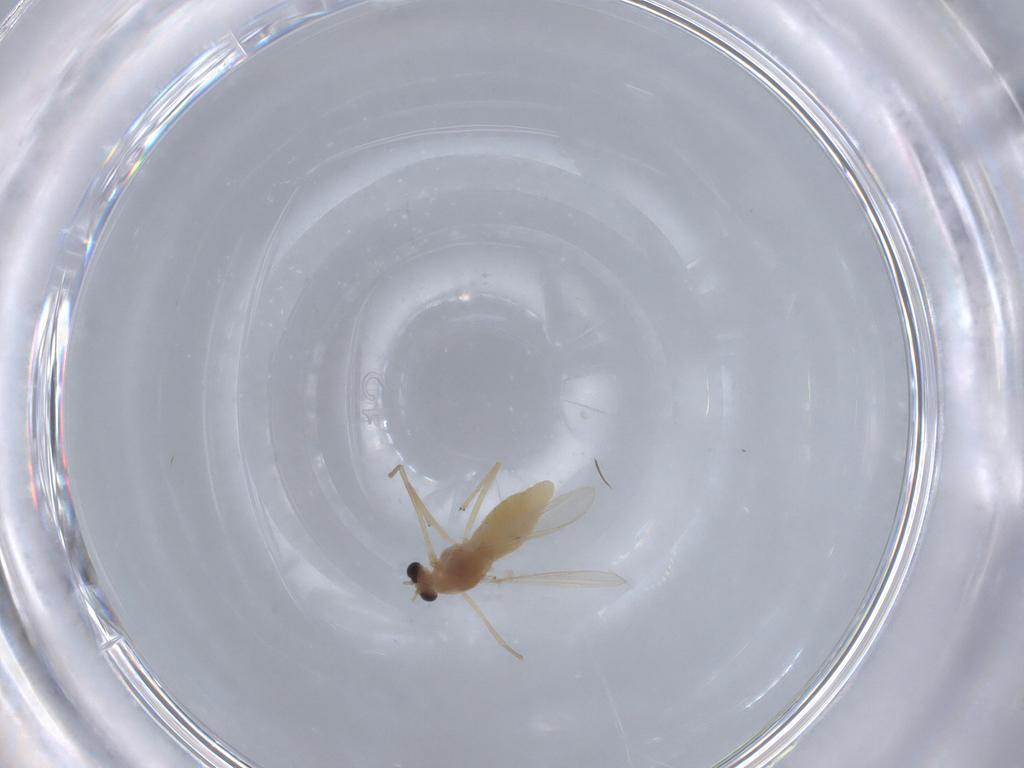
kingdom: Animalia
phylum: Arthropoda
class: Insecta
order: Diptera
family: Chironomidae
